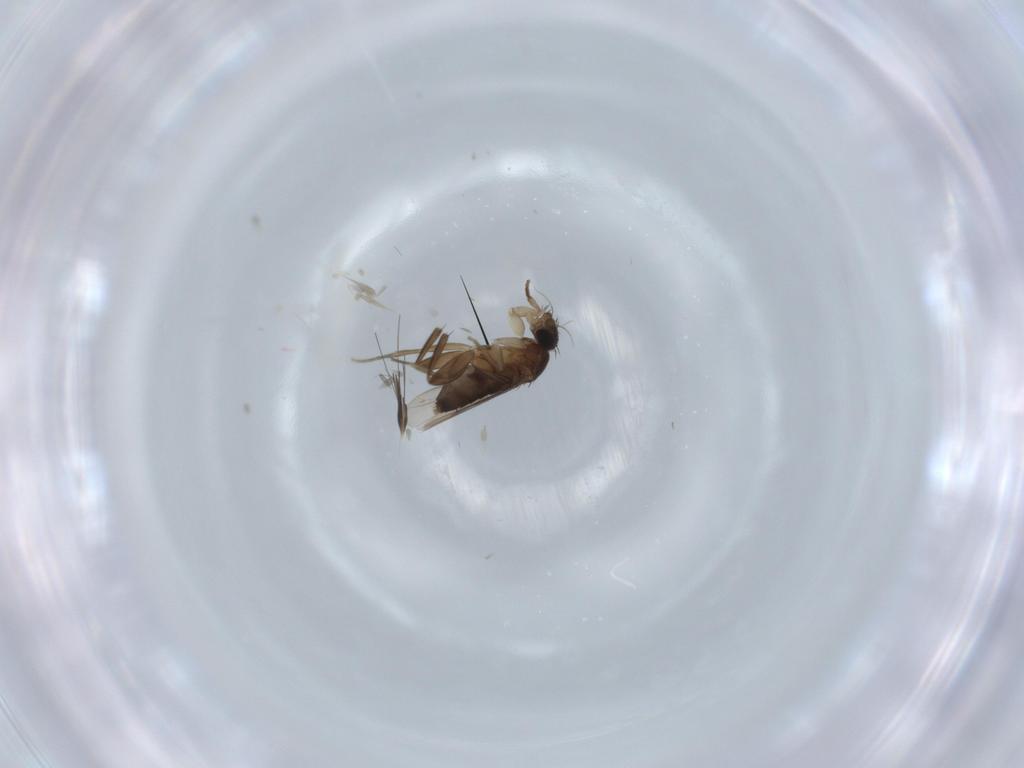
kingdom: Animalia
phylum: Arthropoda
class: Insecta
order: Diptera
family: Phoridae
